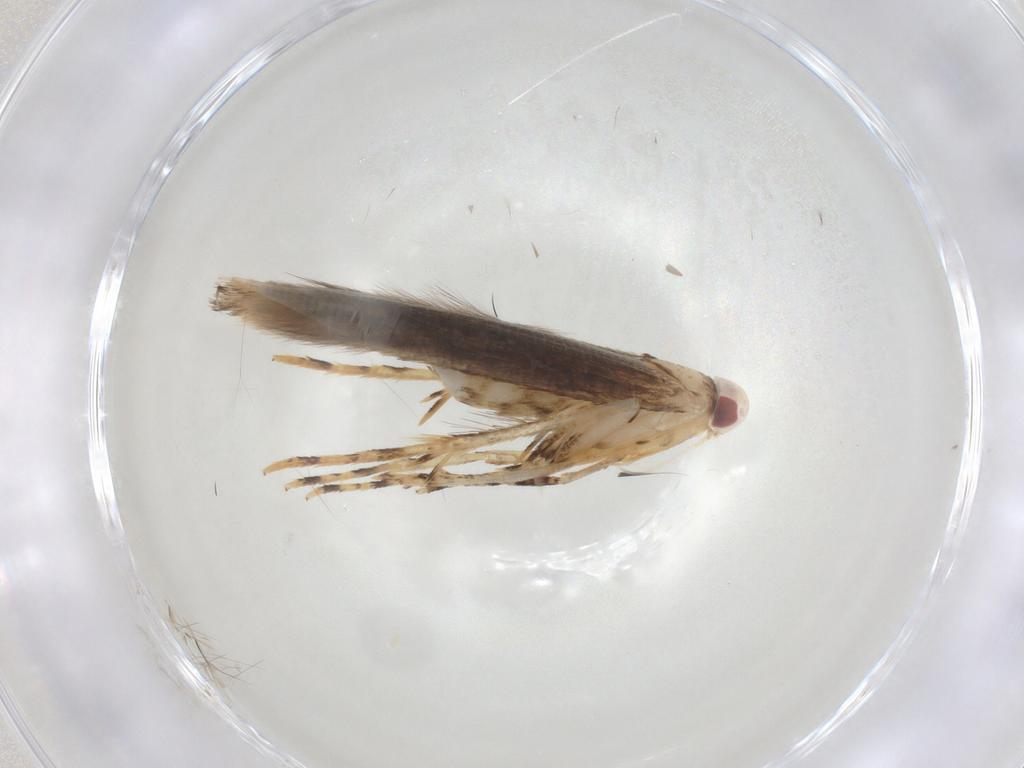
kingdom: Animalia
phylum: Arthropoda
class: Insecta
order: Lepidoptera
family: Cosmopterigidae
